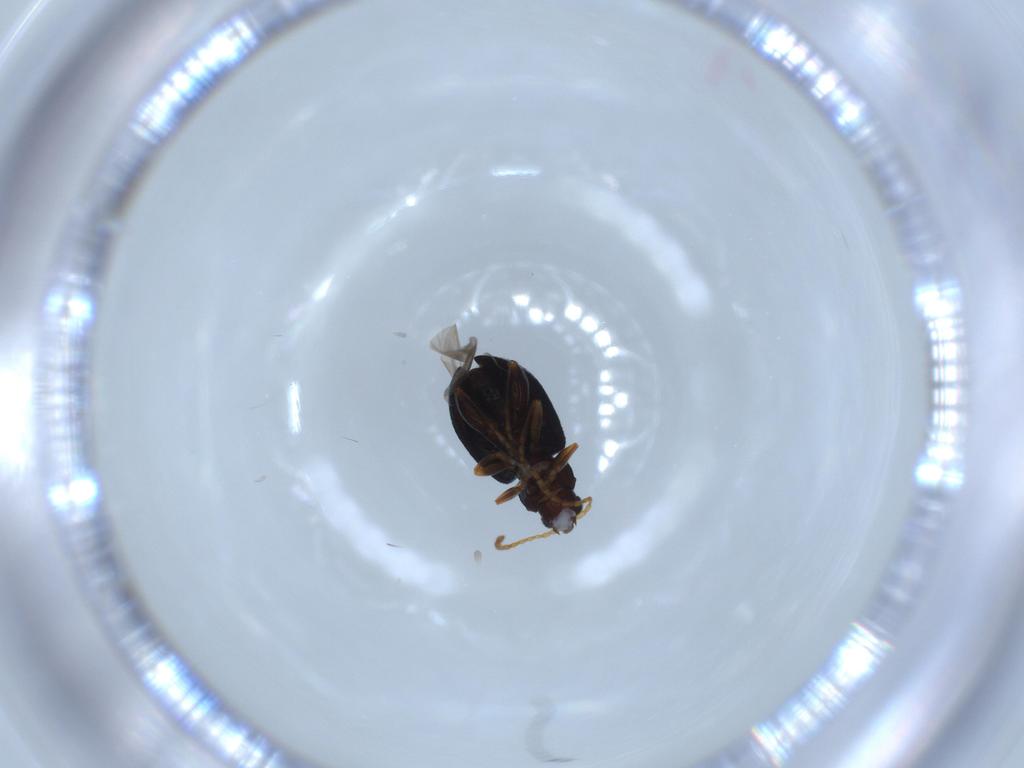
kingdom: Animalia
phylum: Arthropoda
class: Insecta
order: Coleoptera
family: Chrysomelidae
